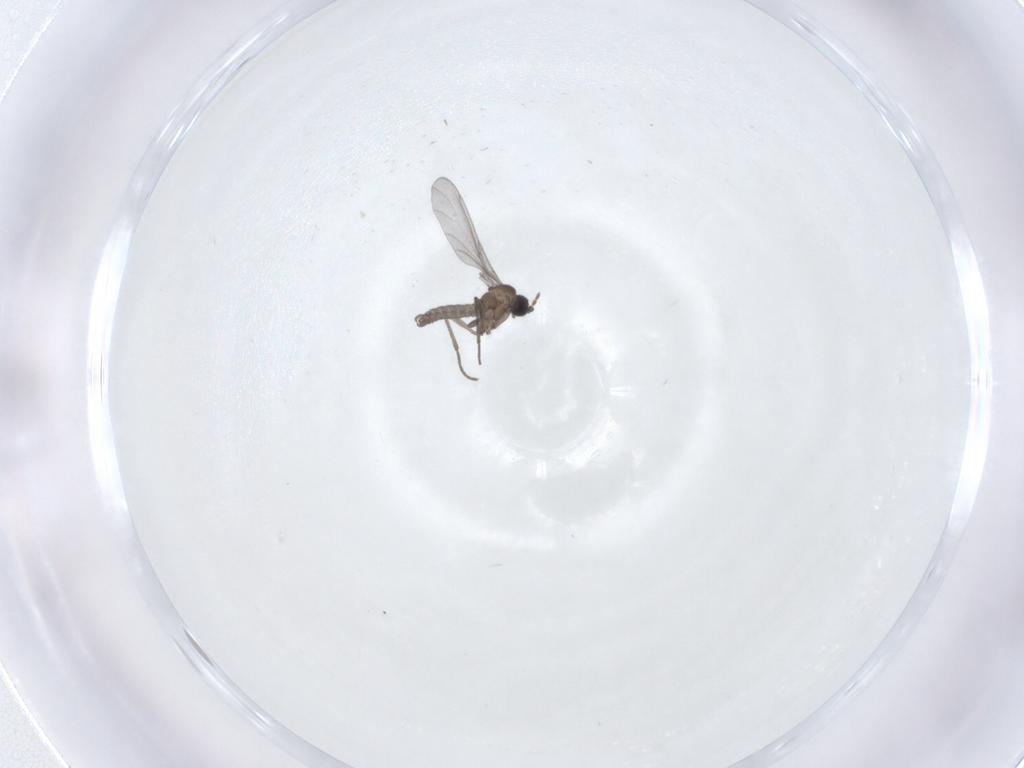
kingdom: Animalia
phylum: Arthropoda
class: Insecta
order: Diptera
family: Sciaridae
